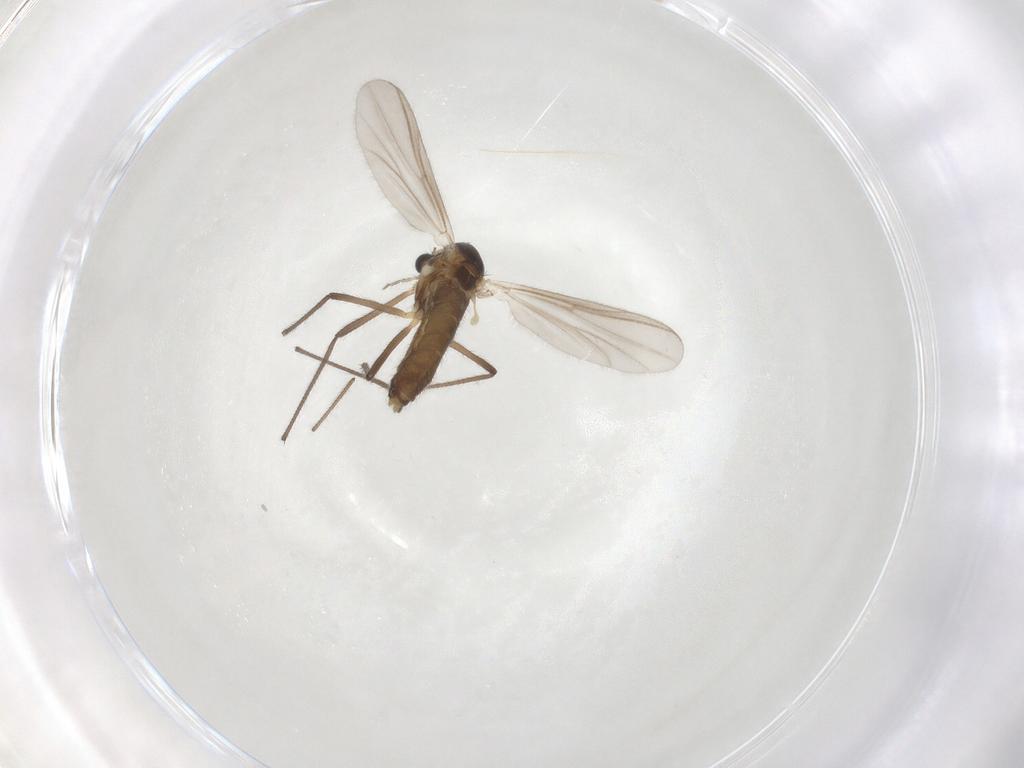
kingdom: Animalia
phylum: Arthropoda
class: Insecta
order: Diptera
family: Chironomidae
